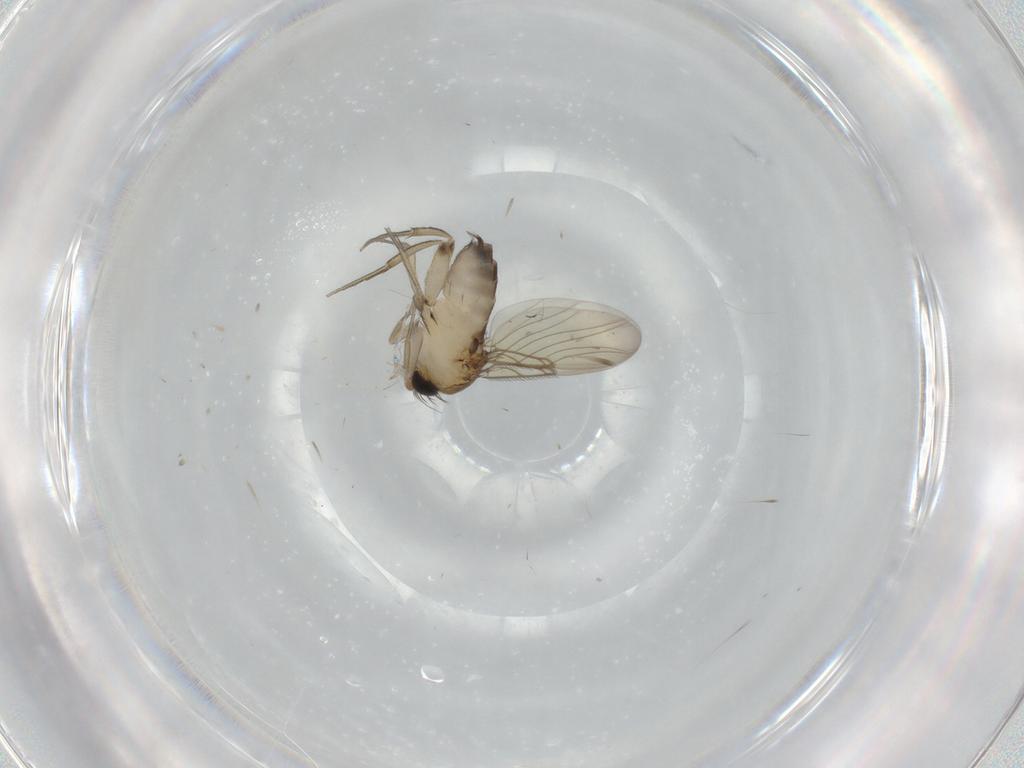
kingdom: Animalia
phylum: Arthropoda
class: Insecta
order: Diptera
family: Phoridae
